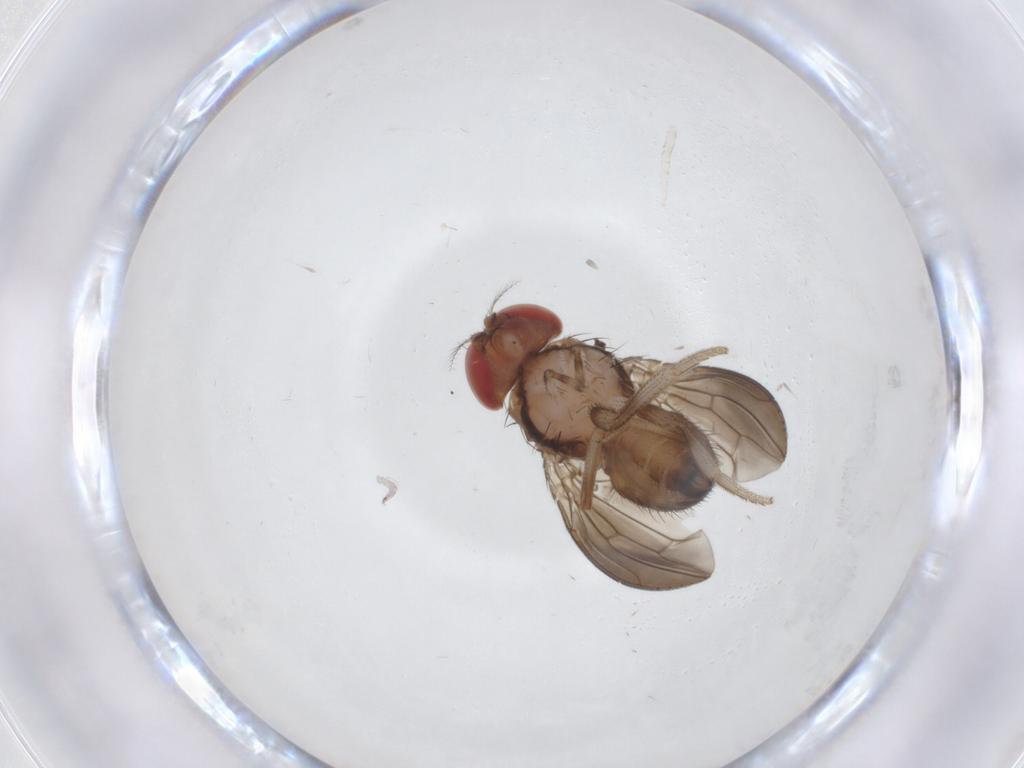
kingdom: Animalia
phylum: Arthropoda
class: Insecta
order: Diptera
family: Drosophilidae
